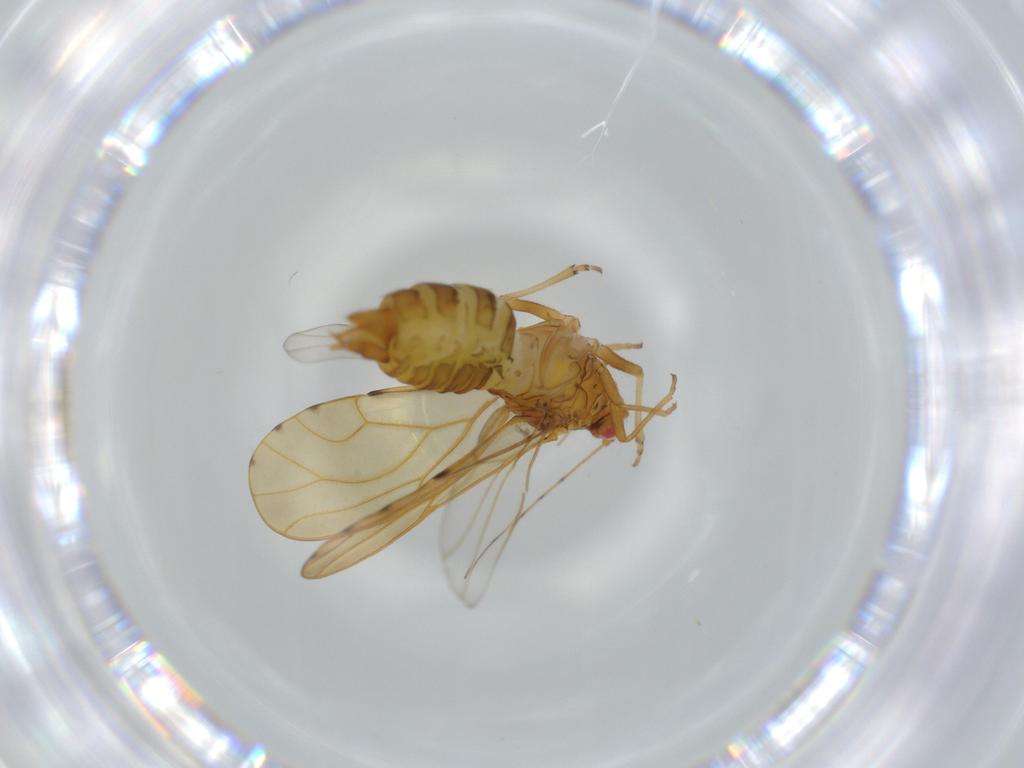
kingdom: Animalia
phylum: Arthropoda
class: Insecta
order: Hemiptera
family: Psylloidea_incertae_sedis
